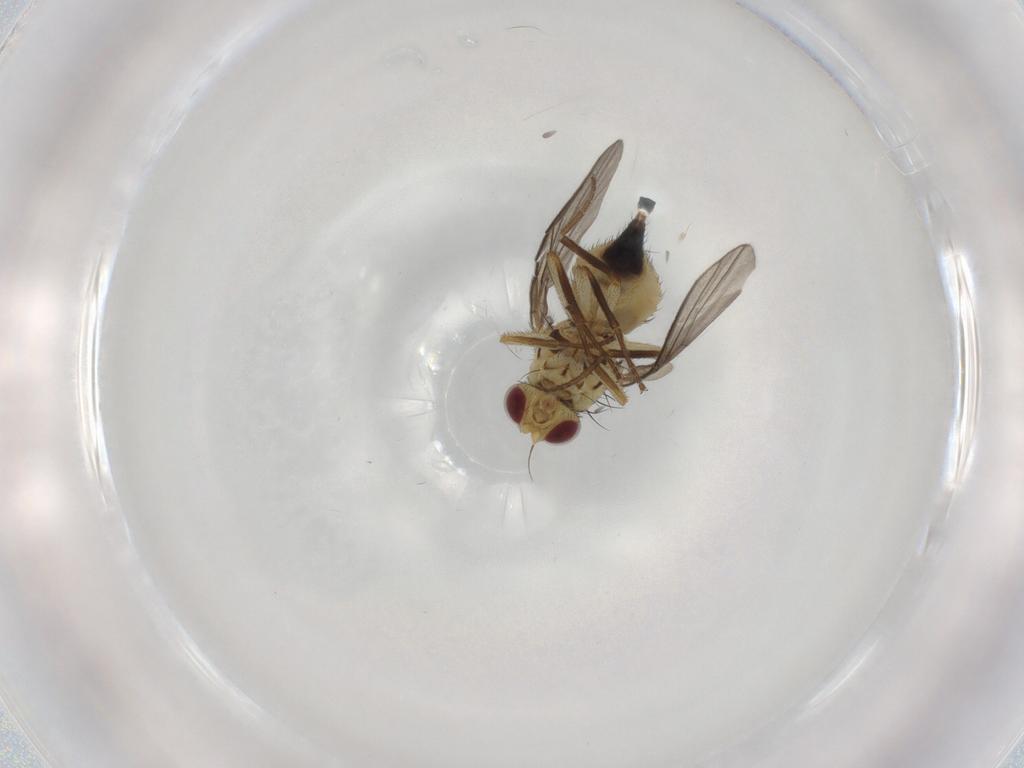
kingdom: Animalia
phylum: Arthropoda
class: Insecta
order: Diptera
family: Agromyzidae
